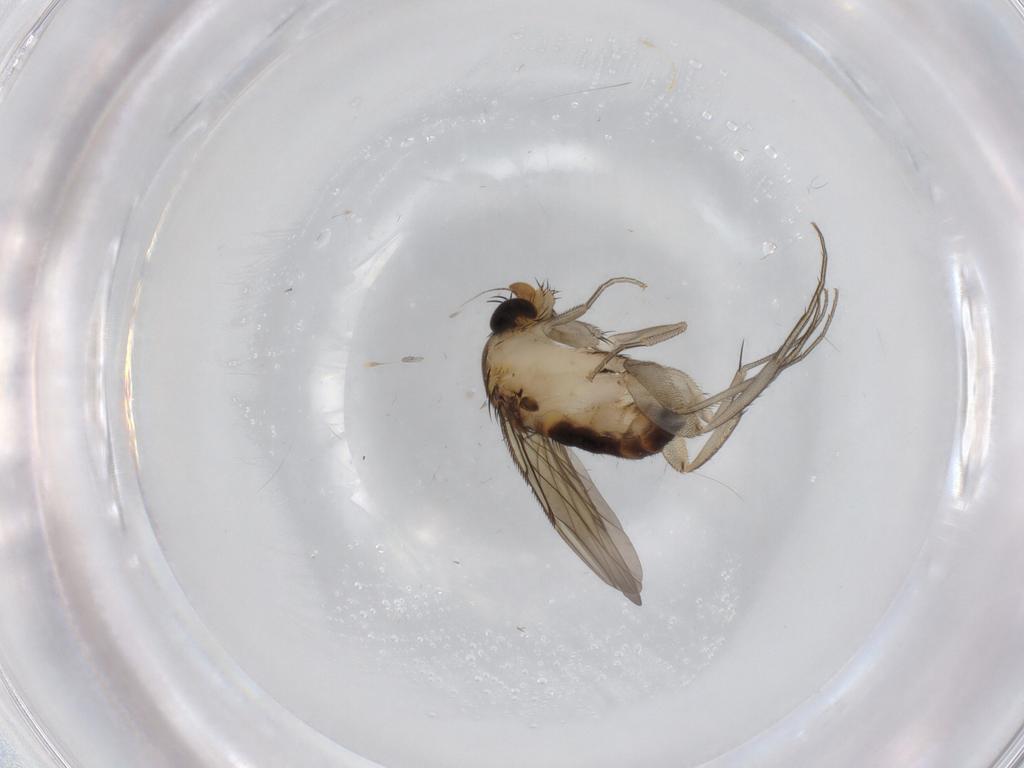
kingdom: Animalia
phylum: Arthropoda
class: Insecta
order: Diptera
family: Phoridae
